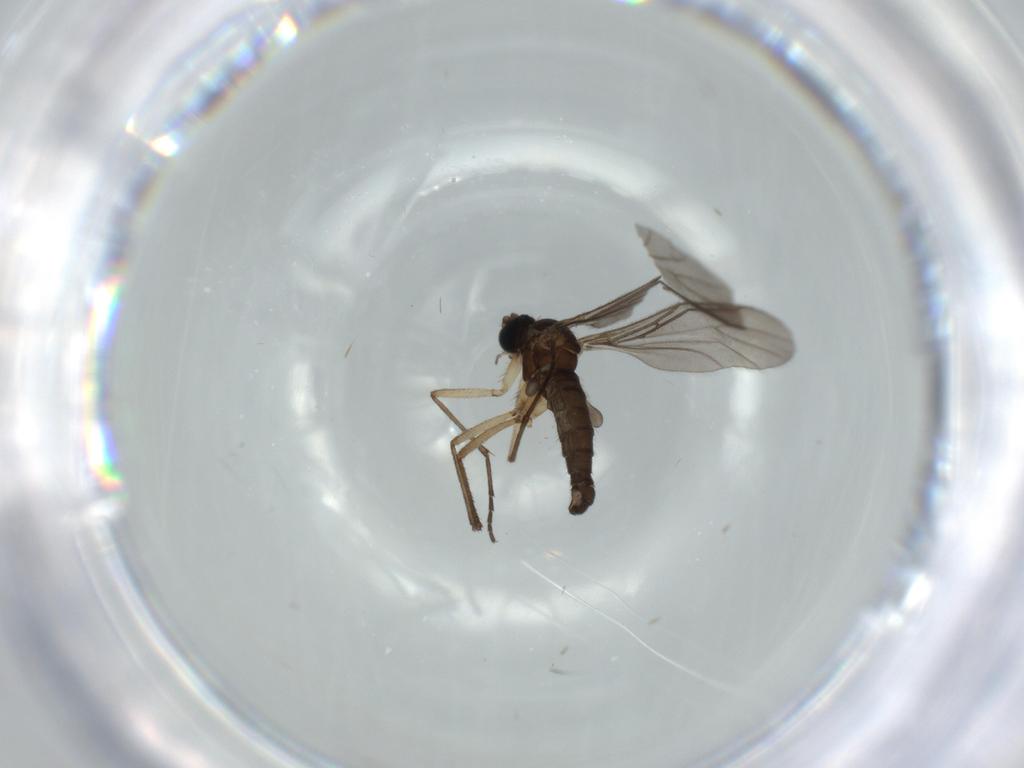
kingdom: Animalia
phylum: Arthropoda
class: Insecta
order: Diptera
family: Sciaridae
